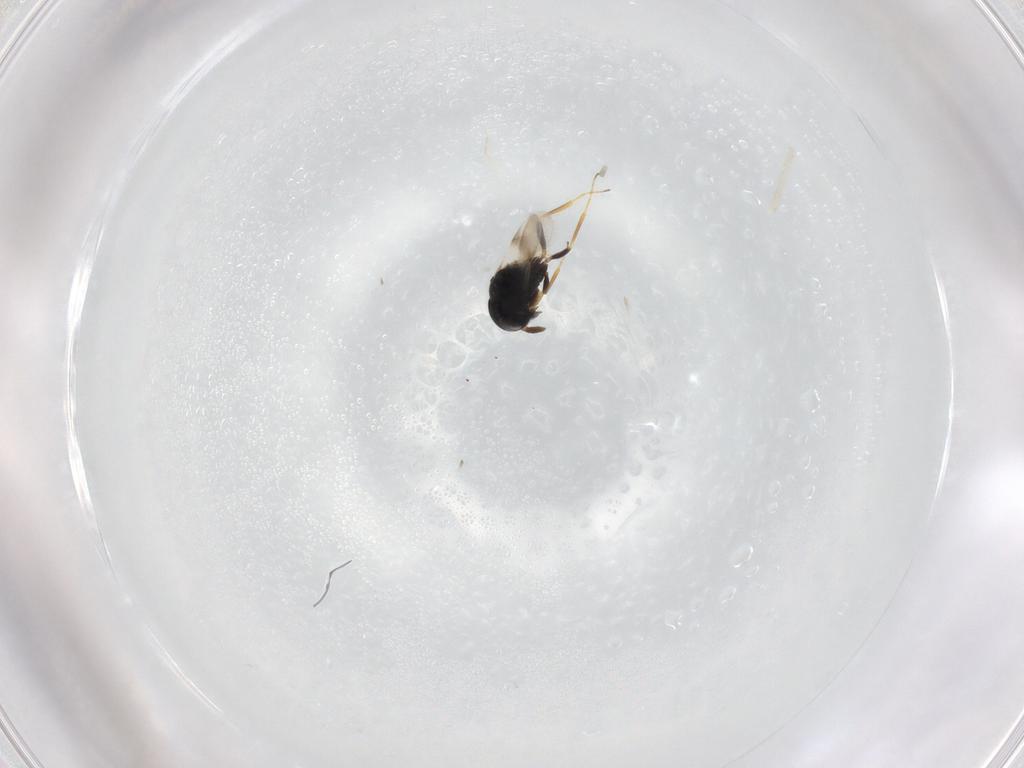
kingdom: Animalia
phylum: Arthropoda
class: Insecta
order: Hymenoptera
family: Scelionidae
